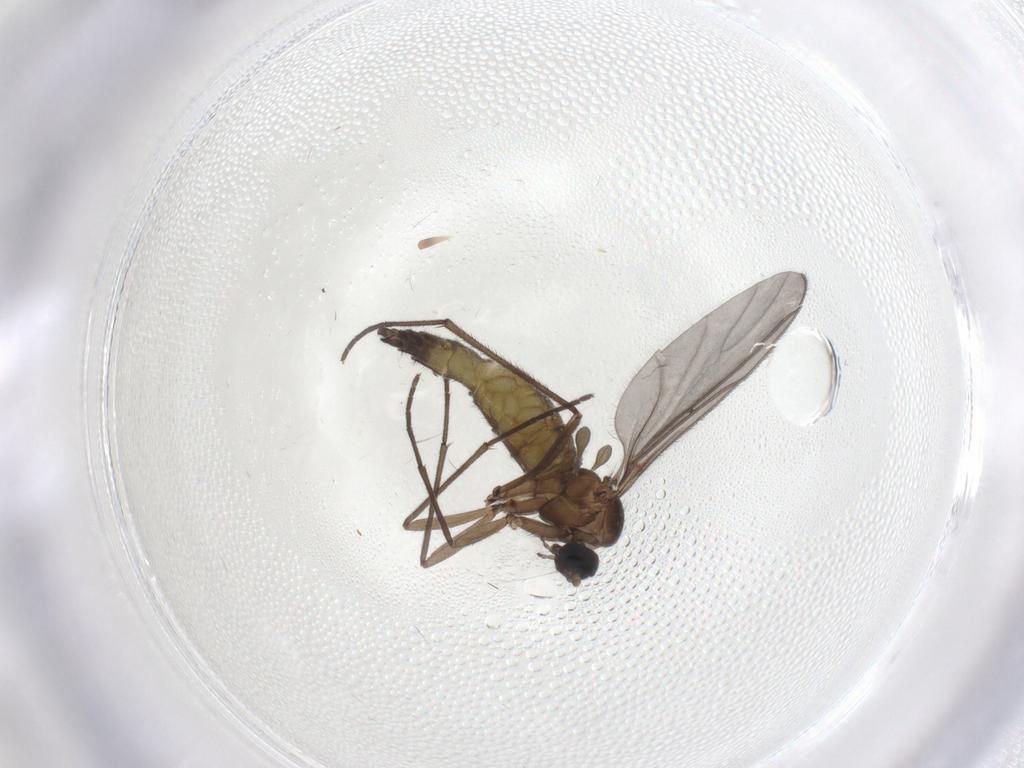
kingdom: Animalia
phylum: Arthropoda
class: Insecta
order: Diptera
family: Sciaridae
